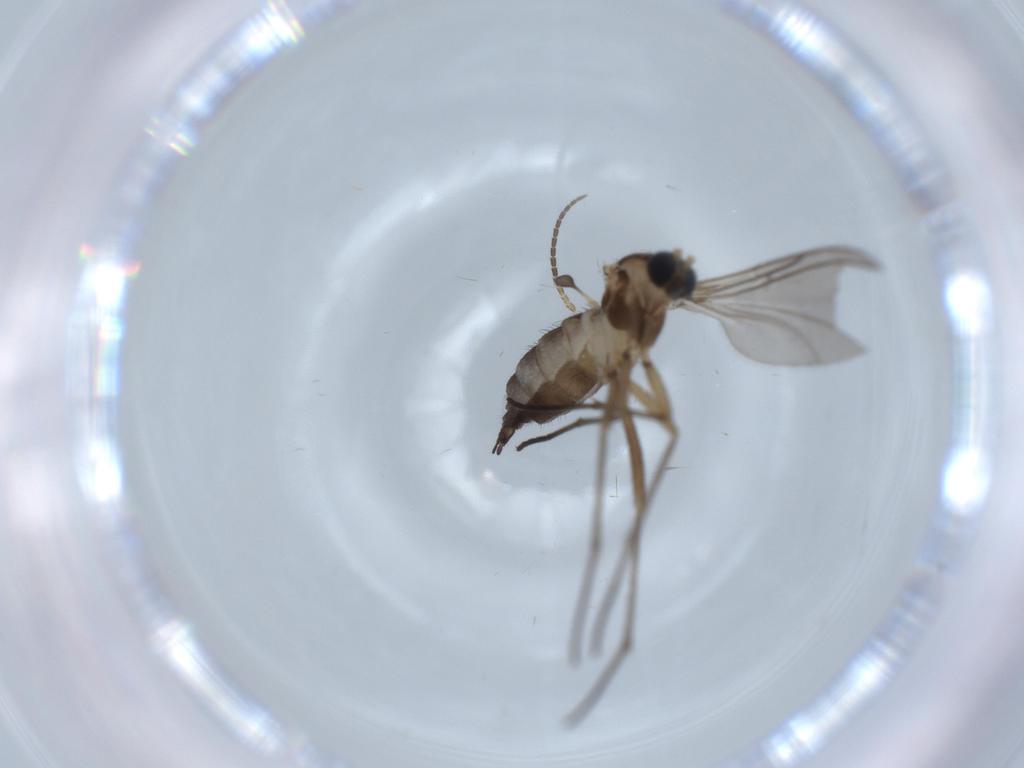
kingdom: Animalia
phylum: Arthropoda
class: Insecta
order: Diptera
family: Sciaridae
